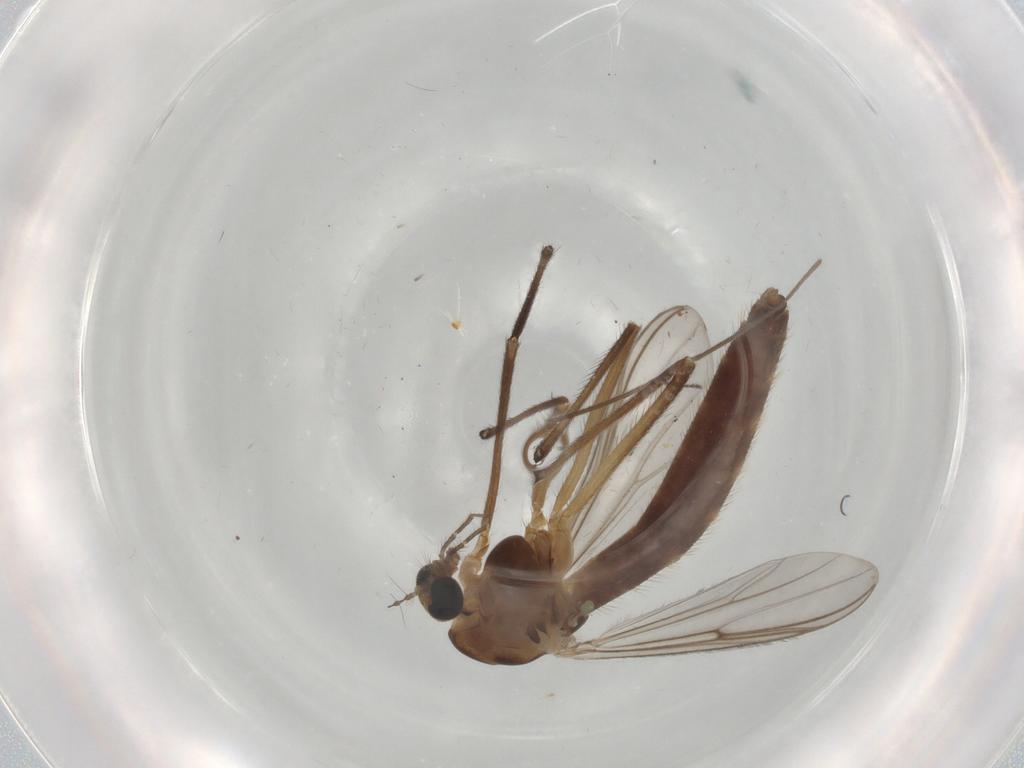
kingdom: Animalia
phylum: Arthropoda
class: Insecta
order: Diptera
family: Chironomidae
